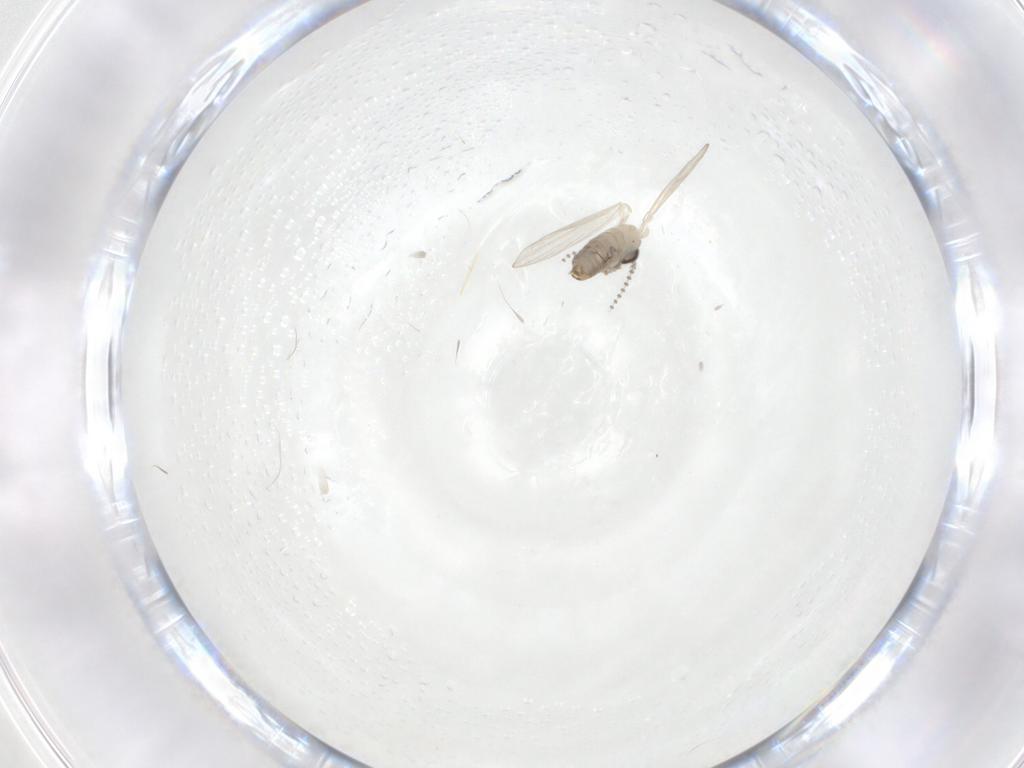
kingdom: Animalia
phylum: Arthropoda
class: Insecta
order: Diptera
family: Psychodidae
